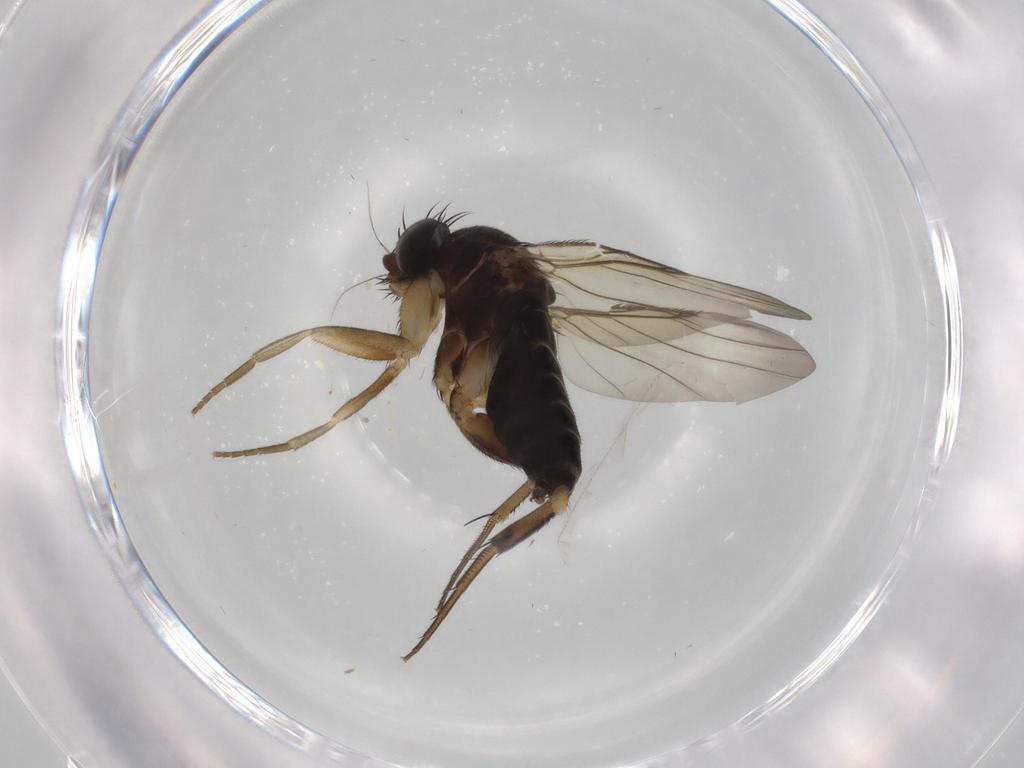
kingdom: Animalia
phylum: Arthropoda
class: Insecta
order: Diptera
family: Phoridae
